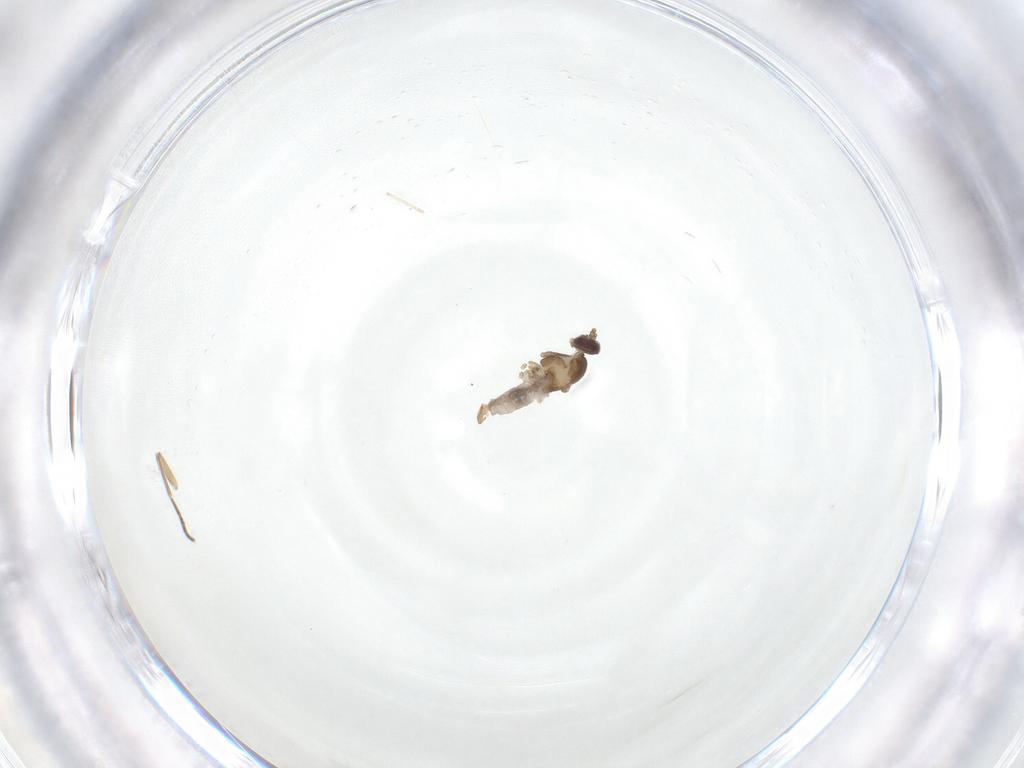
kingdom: Animalia
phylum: Arthropoda
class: Insecta
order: Diptera
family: Cecidomyiidae
